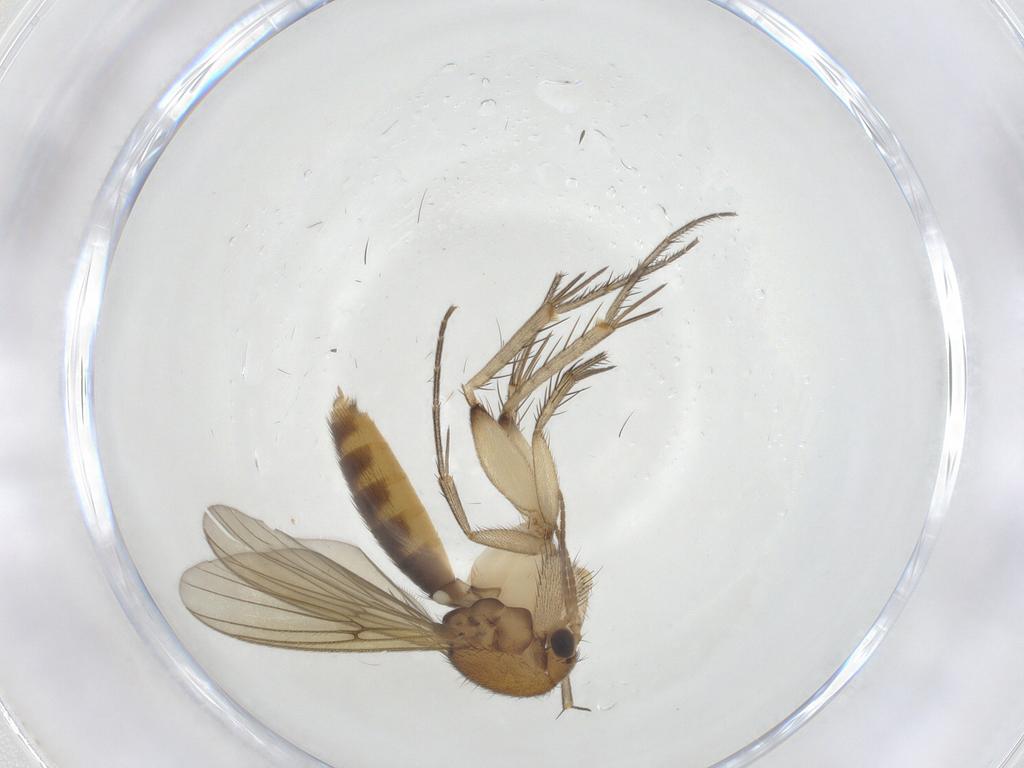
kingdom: Animalia
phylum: Arthropoda
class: Insecta
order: Diptera
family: Mycetophilidae
